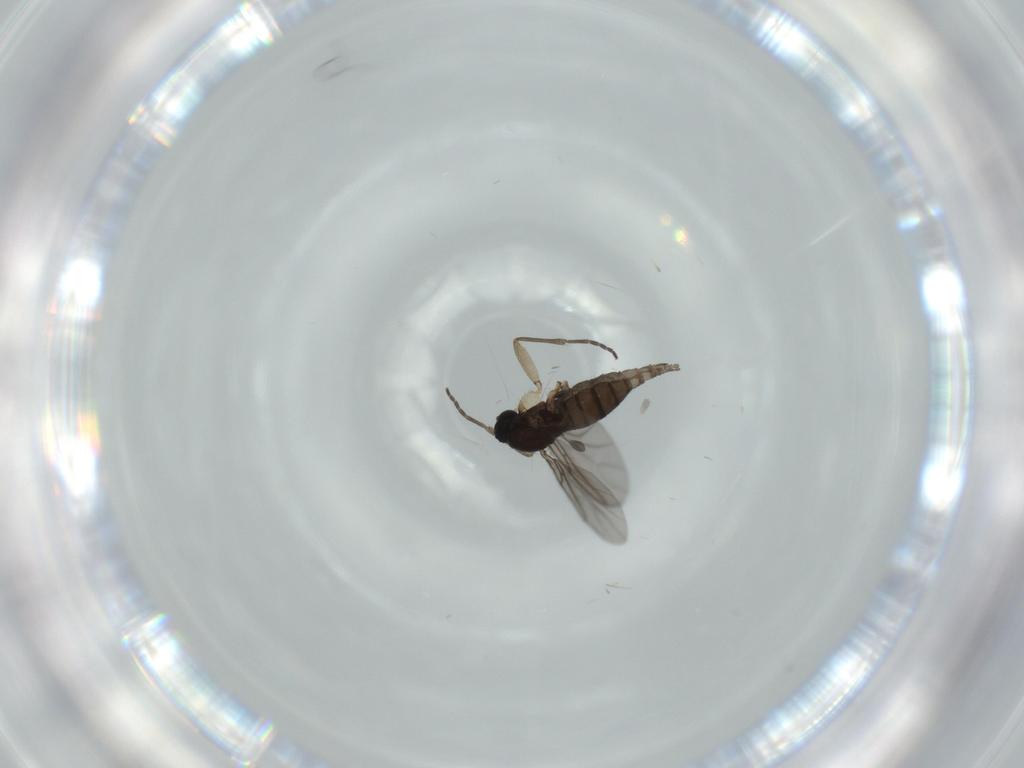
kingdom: Animalia
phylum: Arthropoda
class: Insecta
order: Diptera
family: Sciaridae
